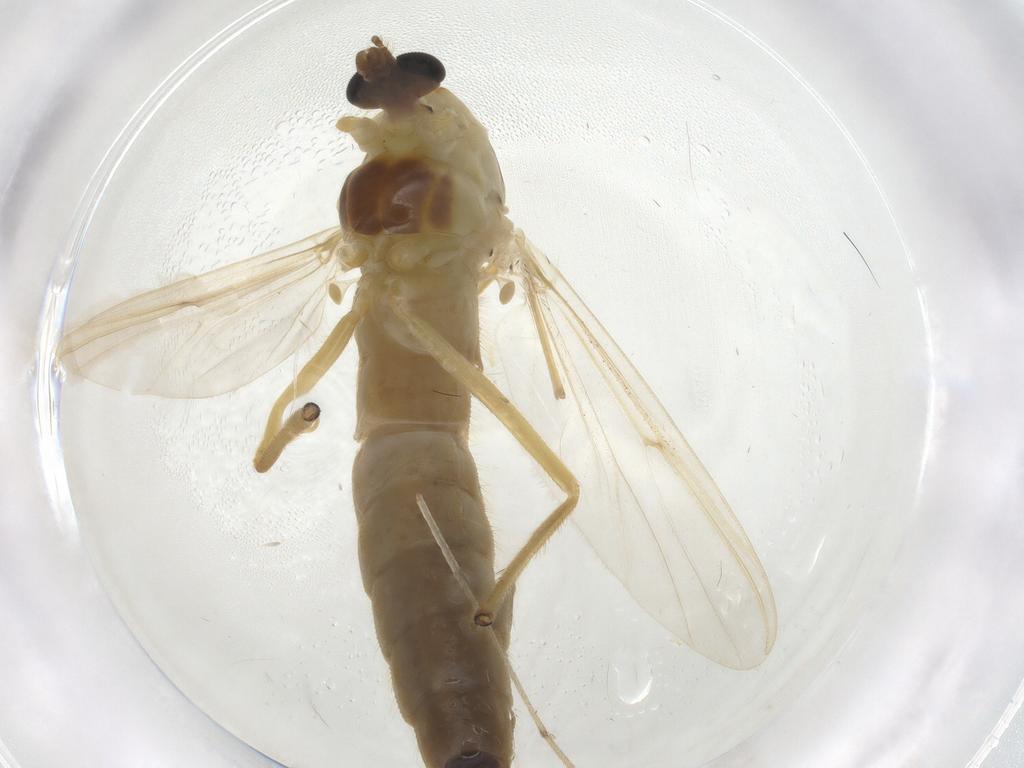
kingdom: Animalia
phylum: Arthropoda
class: Insecta
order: Diptera
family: Chironomidae
